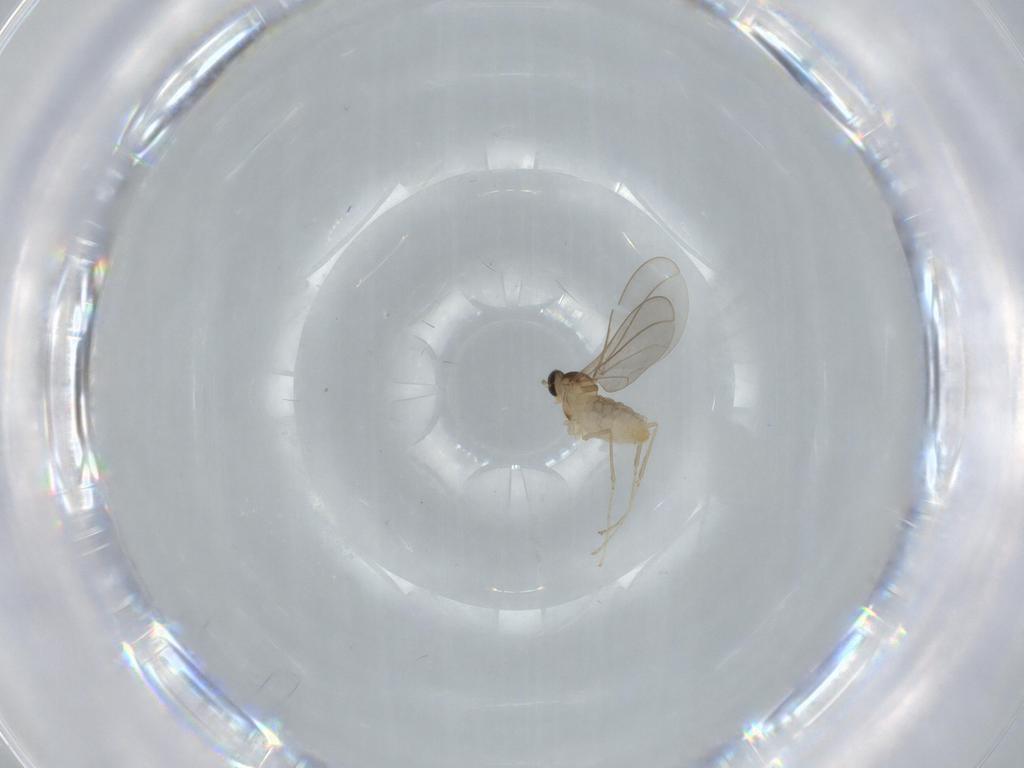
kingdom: Animalia
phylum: Arthropoda
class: Insecta
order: Diptera
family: Cecidomyiidae
